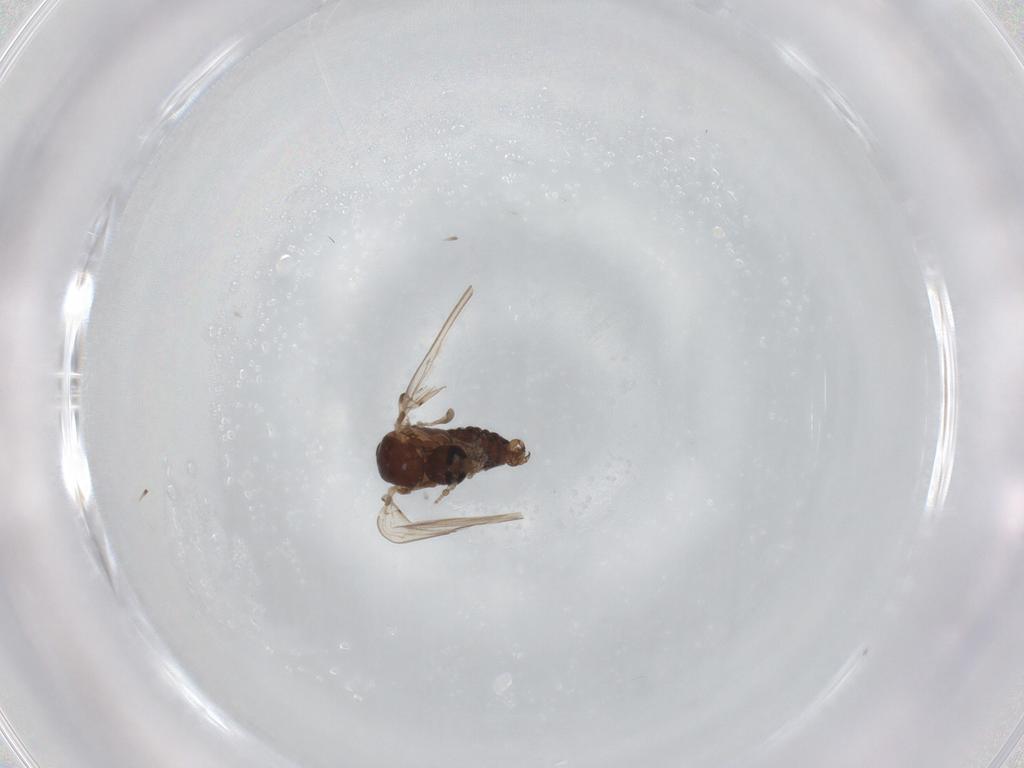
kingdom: Animalia
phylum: Arthropoda
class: Insecta
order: Diptera
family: Psychodidae
